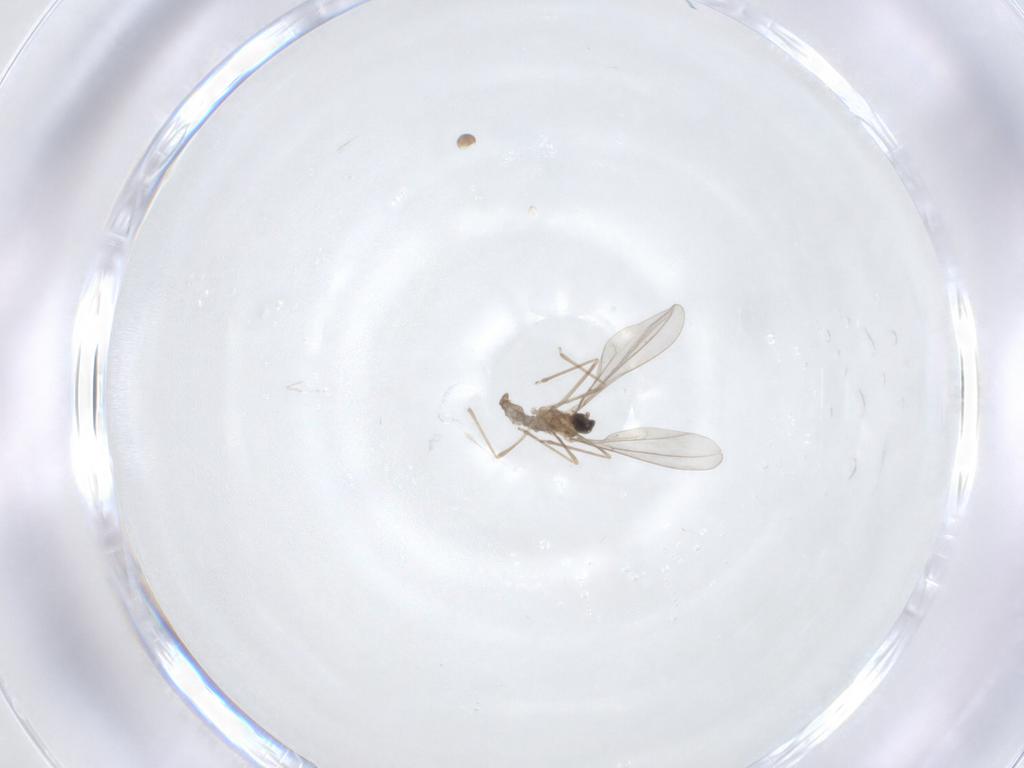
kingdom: Animalia
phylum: Arthropoda
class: Insecta
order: Diptera
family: Cecidomyiidae
